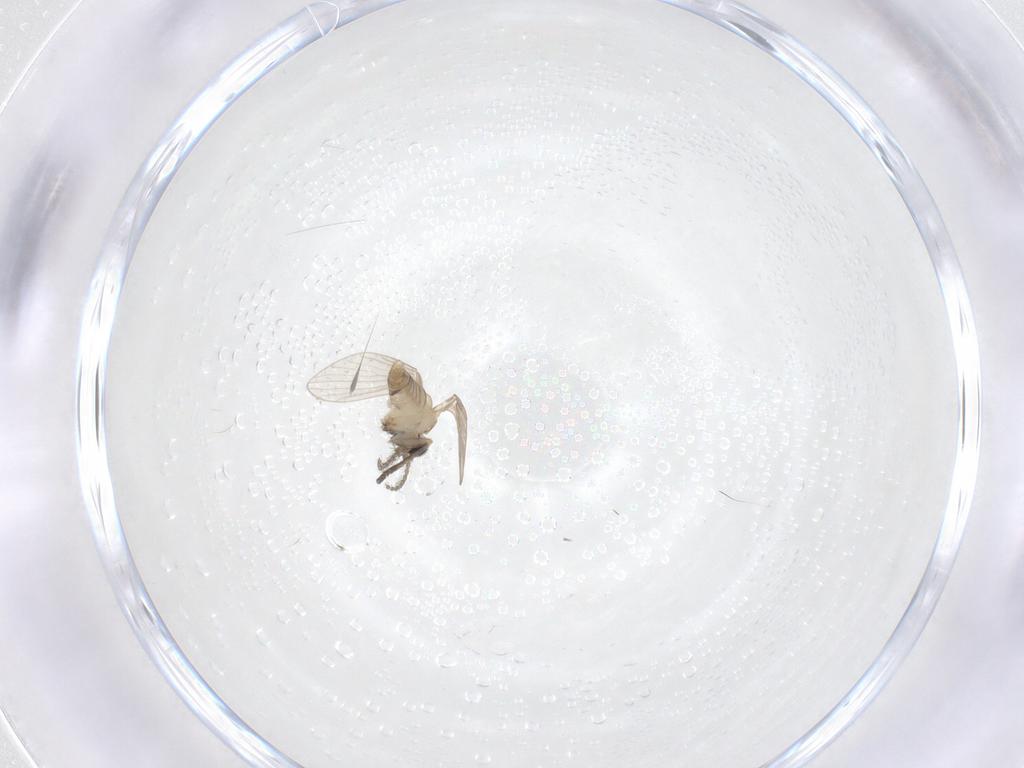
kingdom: Animalia
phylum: Arthropoda
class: Insecta
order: Diptera
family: Psychodidae
